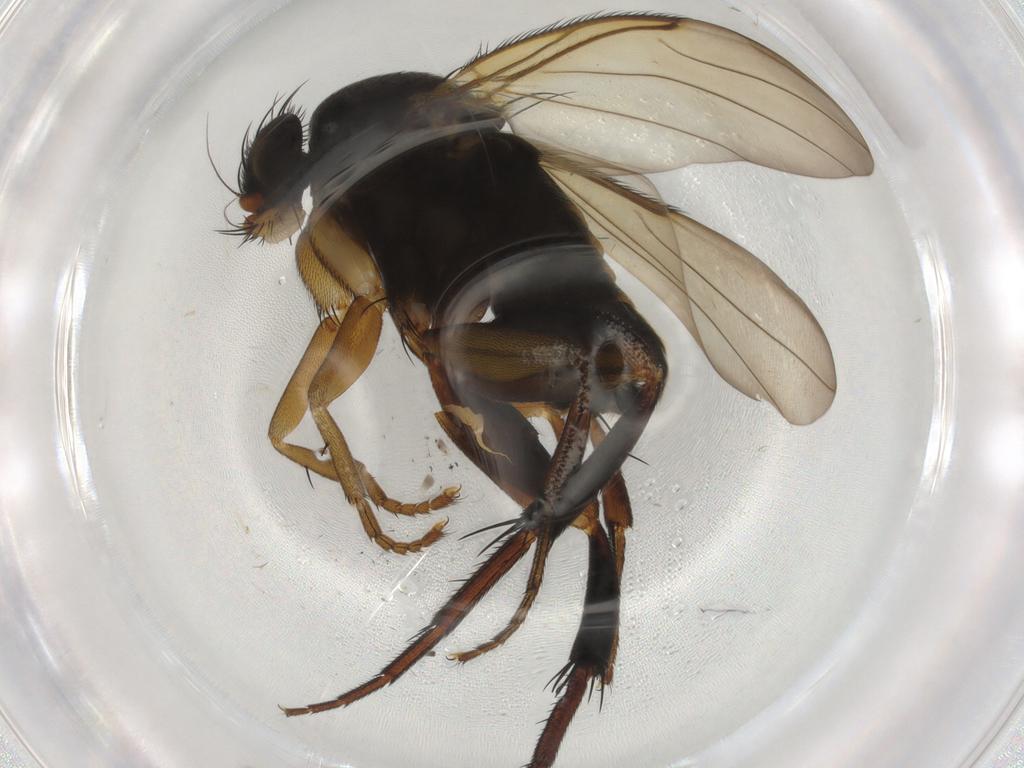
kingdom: Animalia
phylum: Arthropoda
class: Insecta
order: Diptera
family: Phoridae
